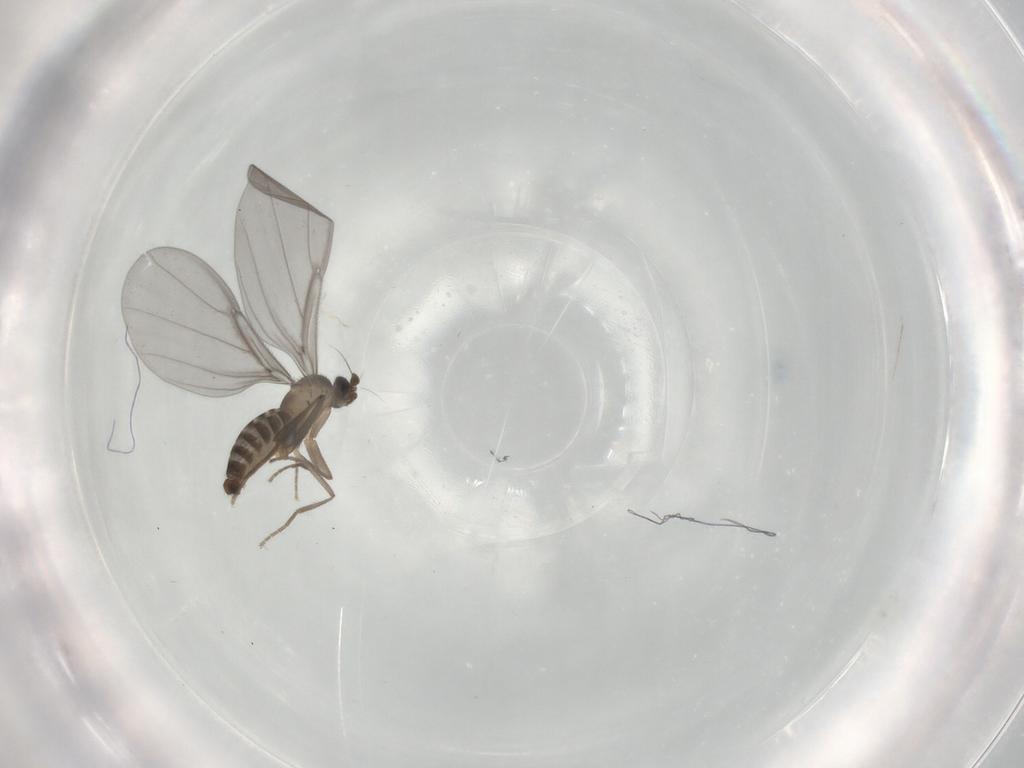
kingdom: Animalia
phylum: Arthropoda
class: Insecta
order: Diptera
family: Phoridae
